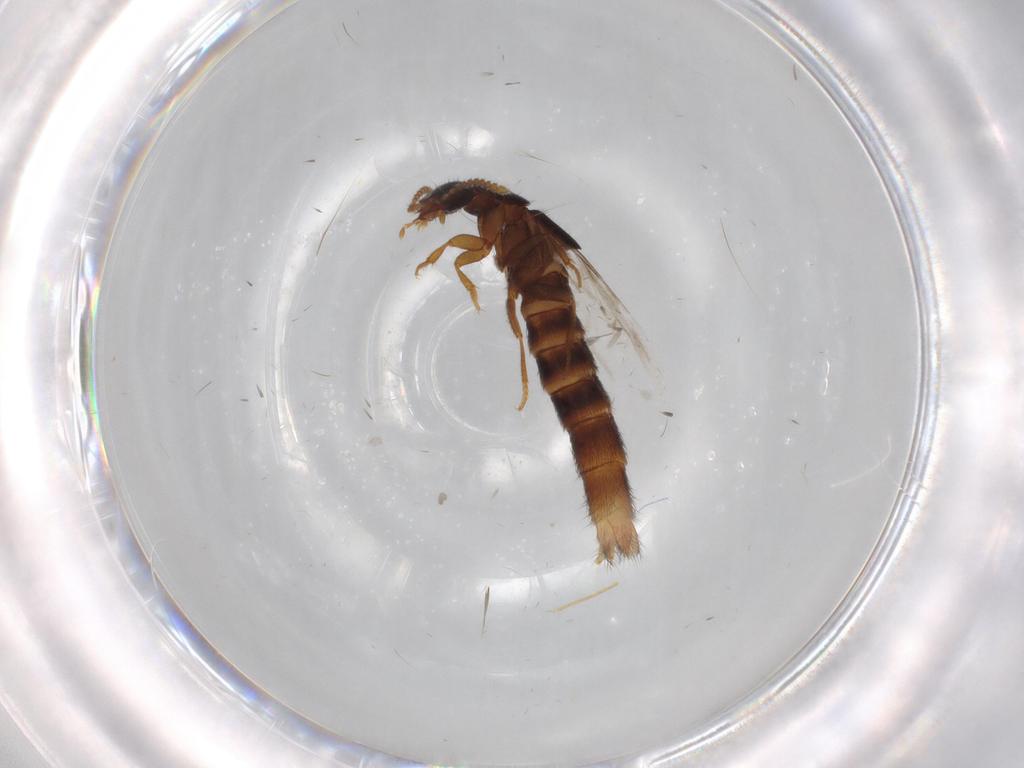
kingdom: Animalia
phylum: Arthropoda
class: Insecta
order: Coleoptera
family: Staphylinidae
